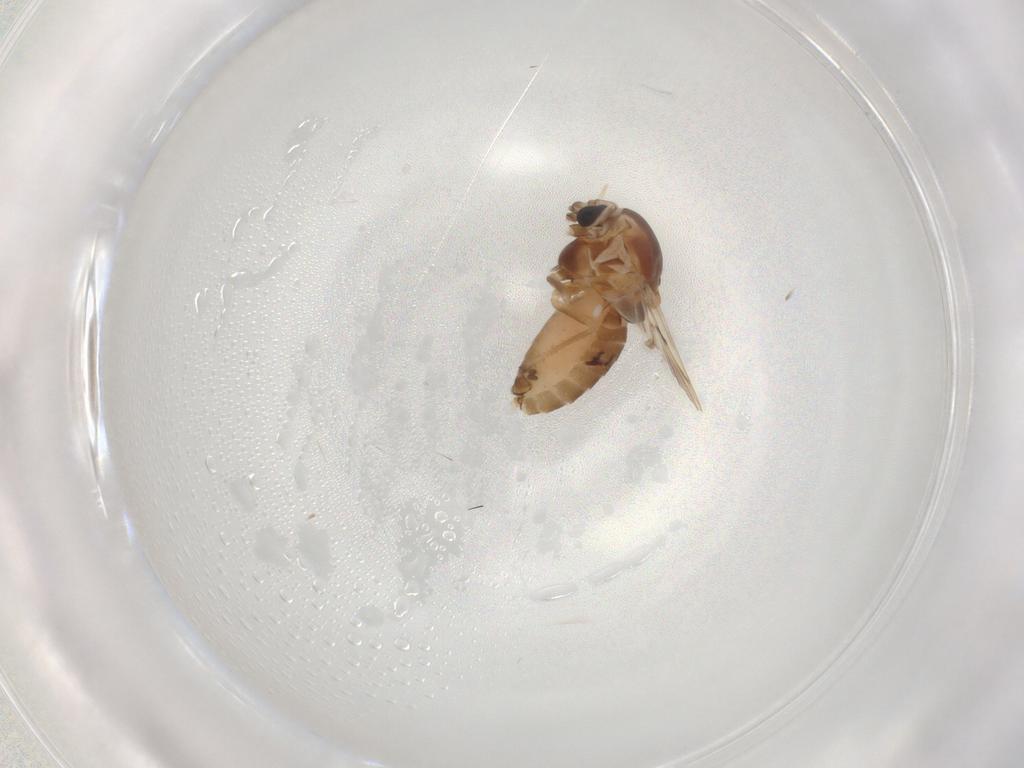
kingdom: Animalia
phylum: Arthropoda
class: Insecta
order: Diptera
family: Chironomidae
